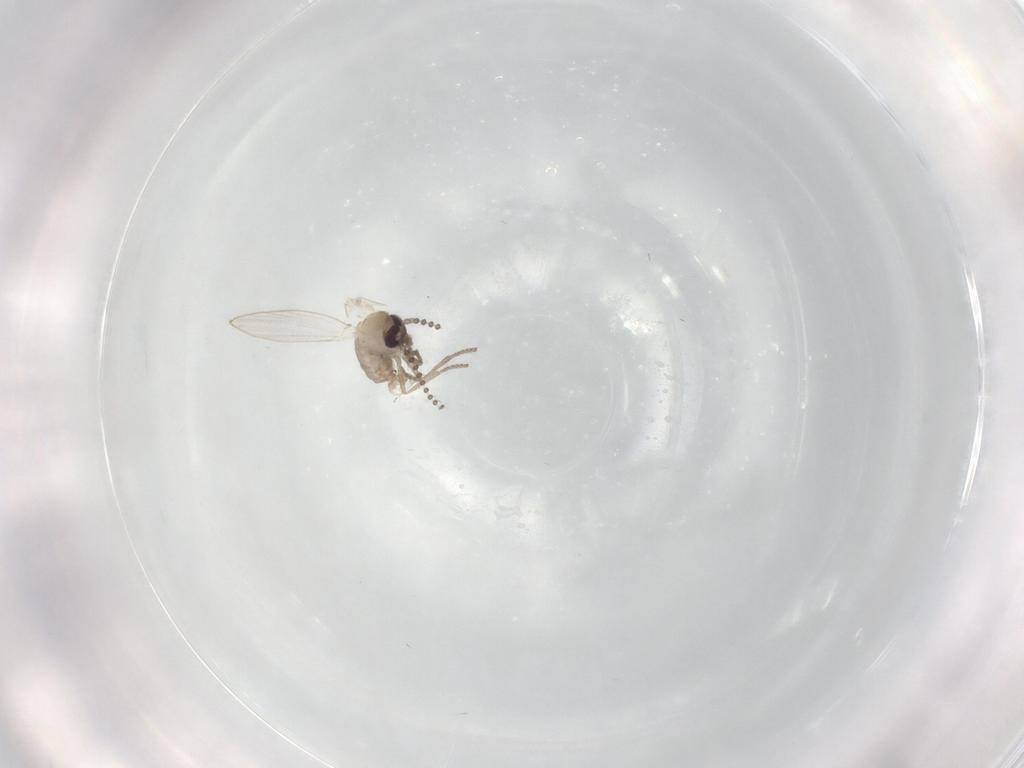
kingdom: Animalia
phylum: Arthropoda
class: Insecta
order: Diptera
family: Psychodidae
